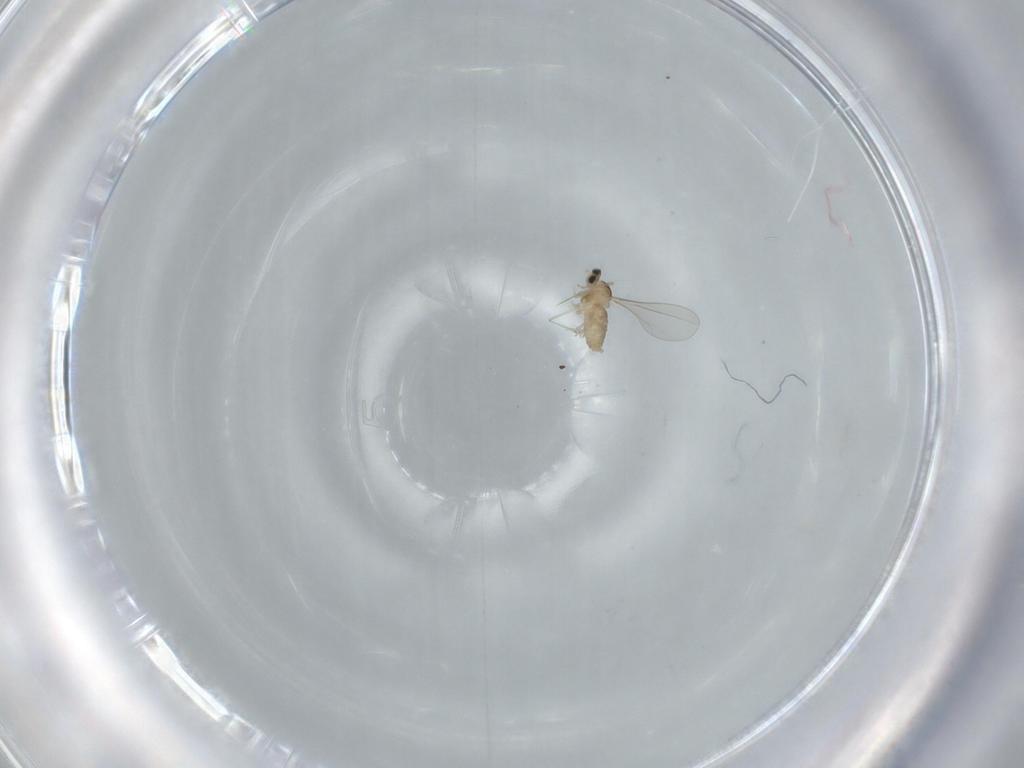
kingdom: Animalia
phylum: Arthropoda
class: Insecta
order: Diptera
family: Cecidomyiidae
